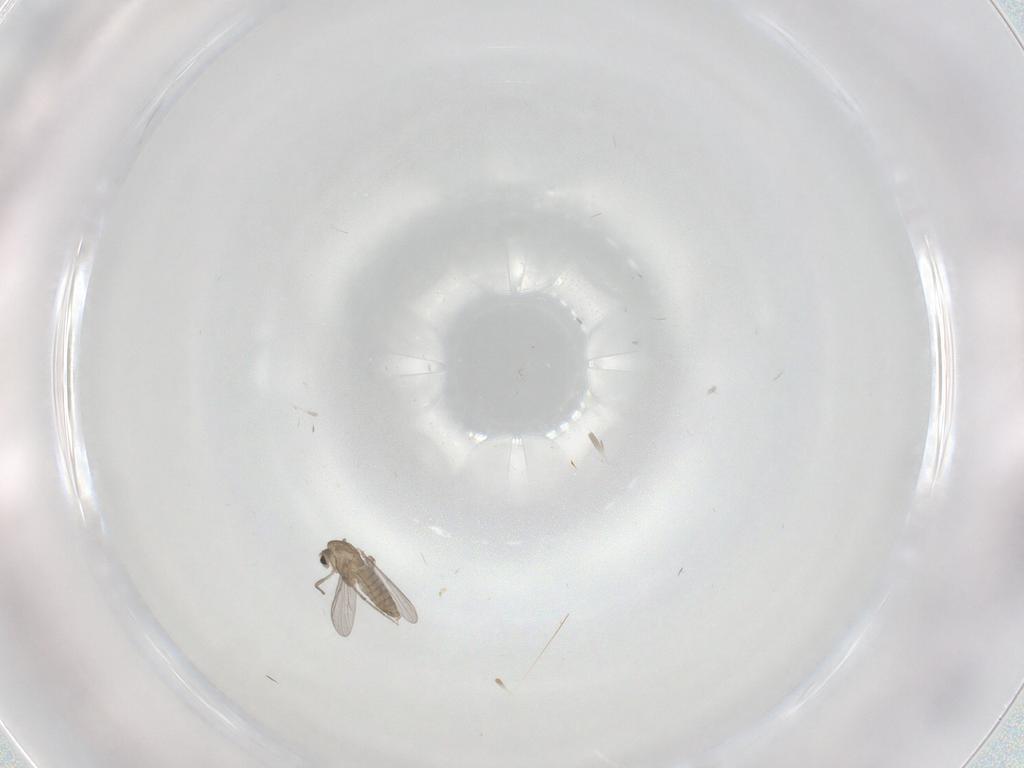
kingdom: Animalia
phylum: Arthropoda
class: Insecta
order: Diptera
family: Chironomidae
